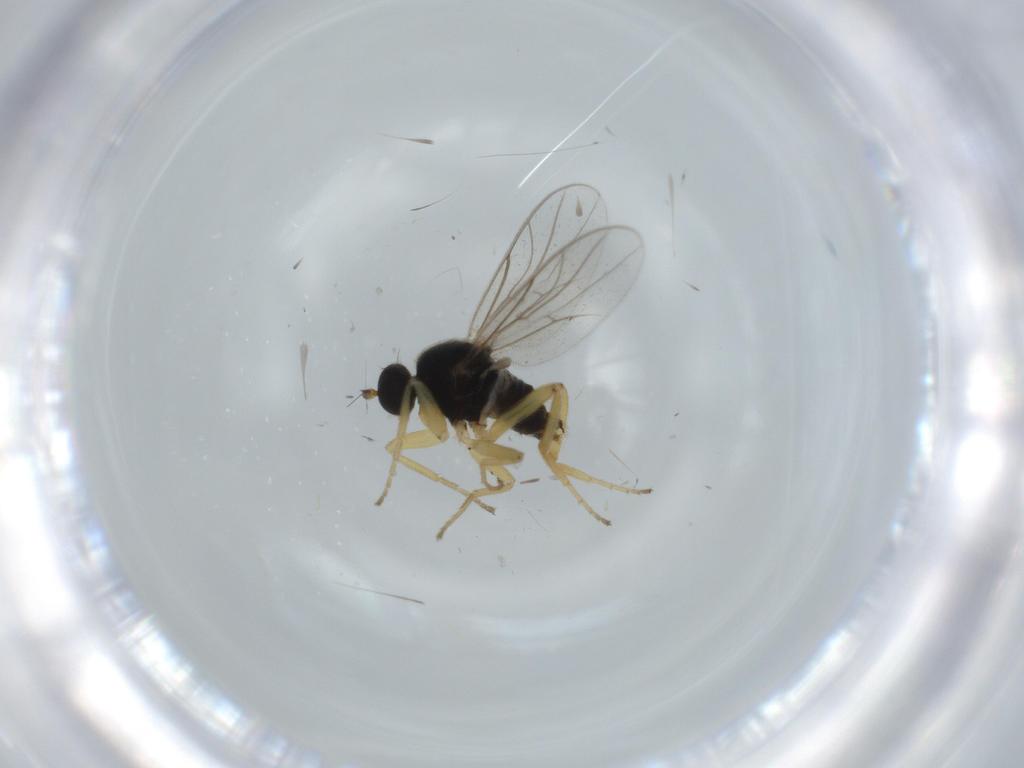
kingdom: Animalia
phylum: Arthropoda
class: Insecta
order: Diptera
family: Hybotidae
